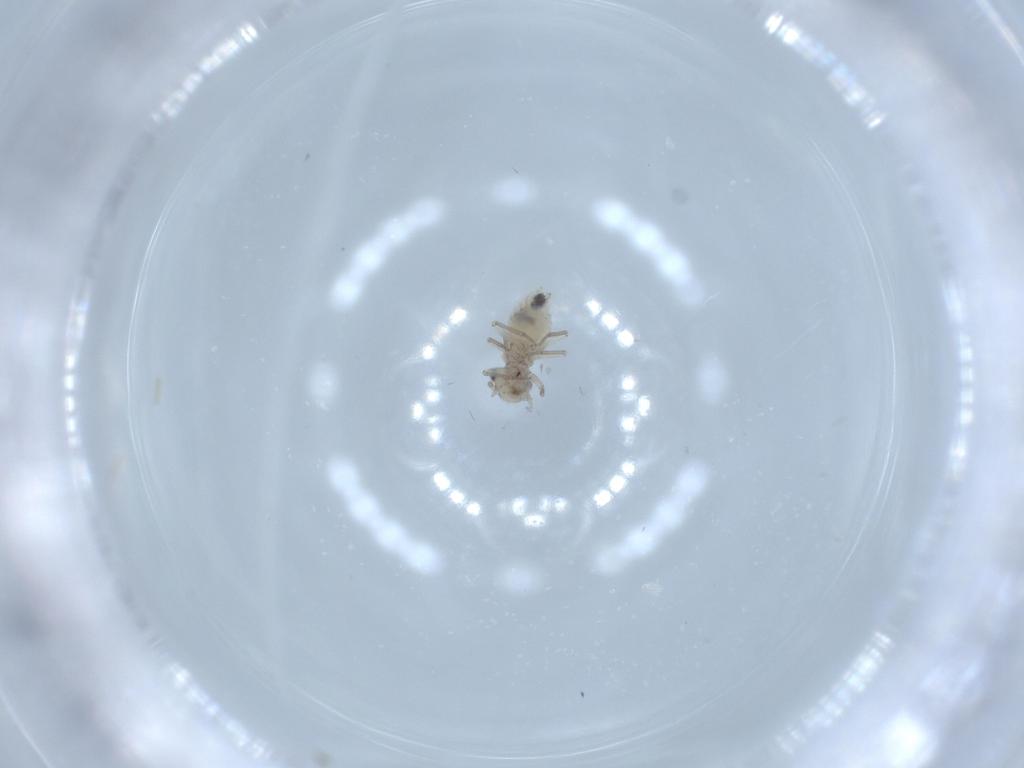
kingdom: Animalia
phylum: Arthropoda
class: Insecta
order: Psocodea
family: Lachesillidae
